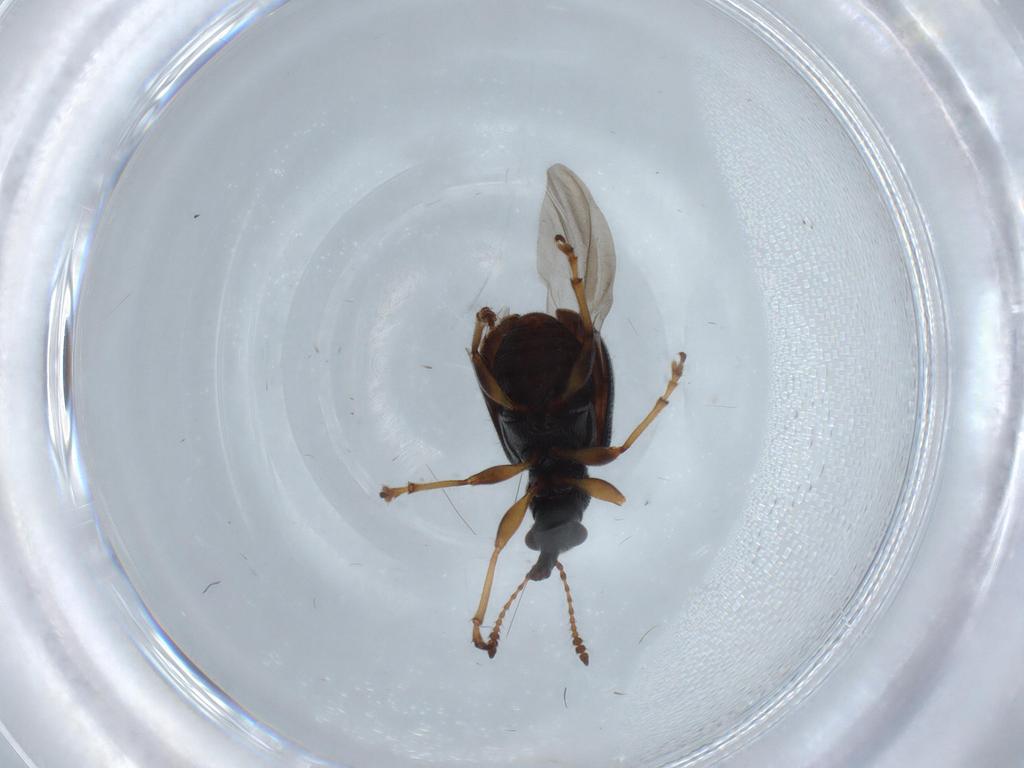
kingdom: Animalia
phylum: Arthropoda
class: Insecta
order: Coleoptera
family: Attelabidae
